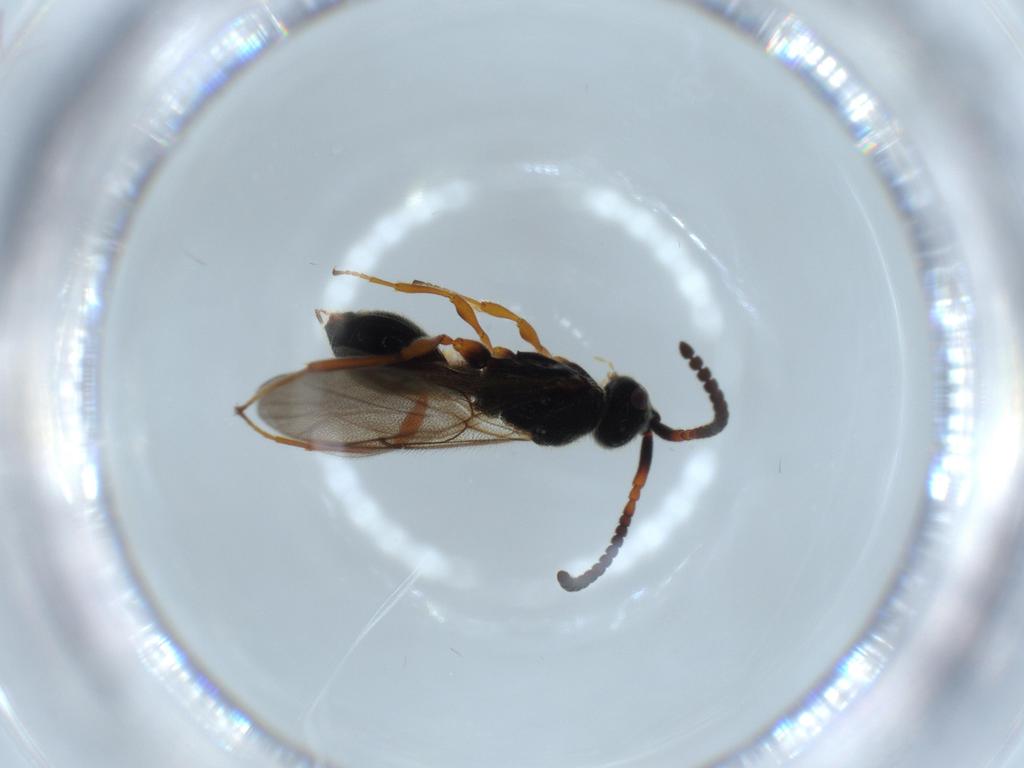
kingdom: Animalia
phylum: Arthropoda
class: Insecta
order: Hymenoptera
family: Diapriidae
